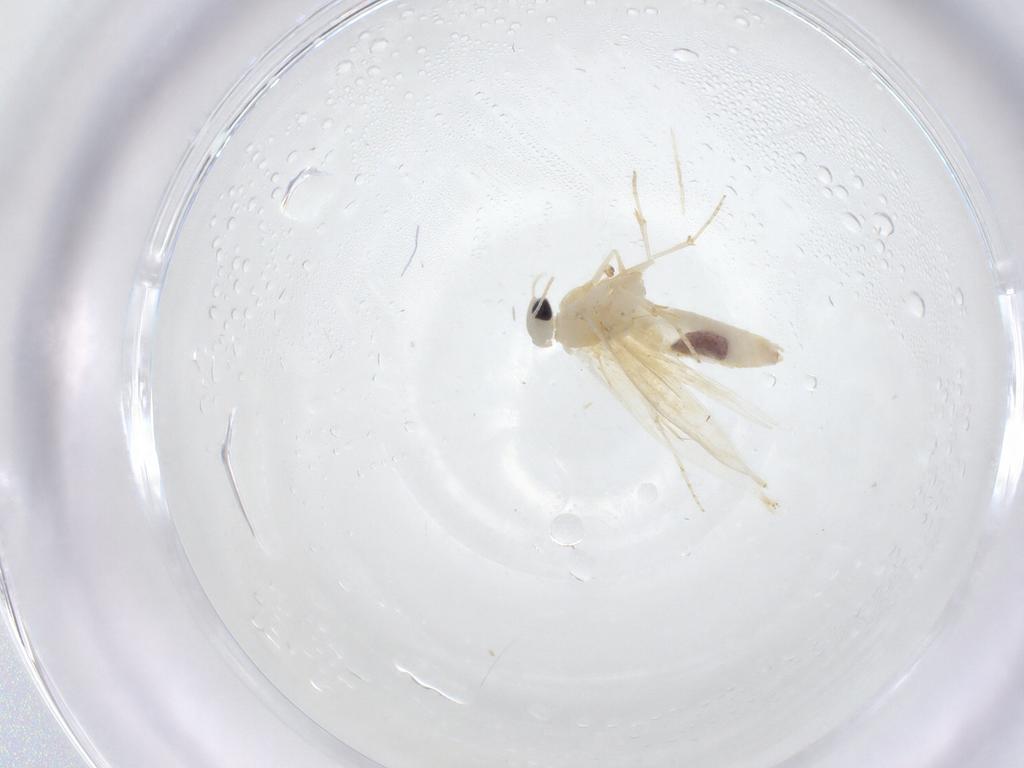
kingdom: Animalia
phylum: Arthropoda
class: Insecta
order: Lepidoptera
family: Bucculatricidae
